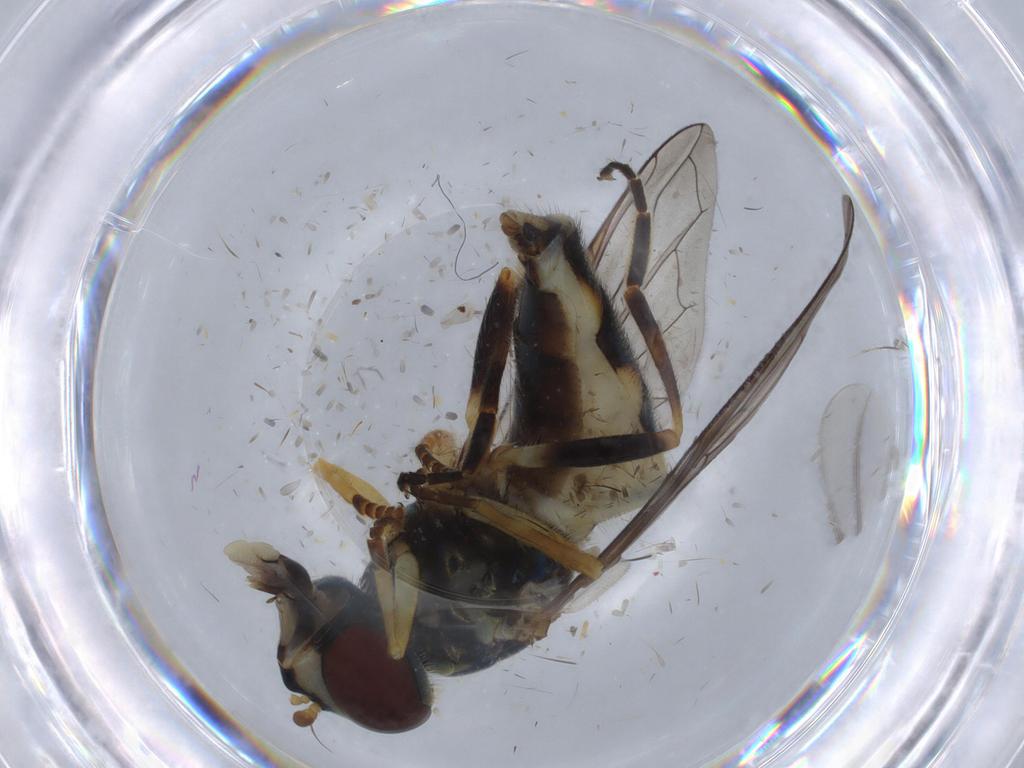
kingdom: Animalia
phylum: Arthropoda
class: Insecta
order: Diptera
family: Syrphidae
